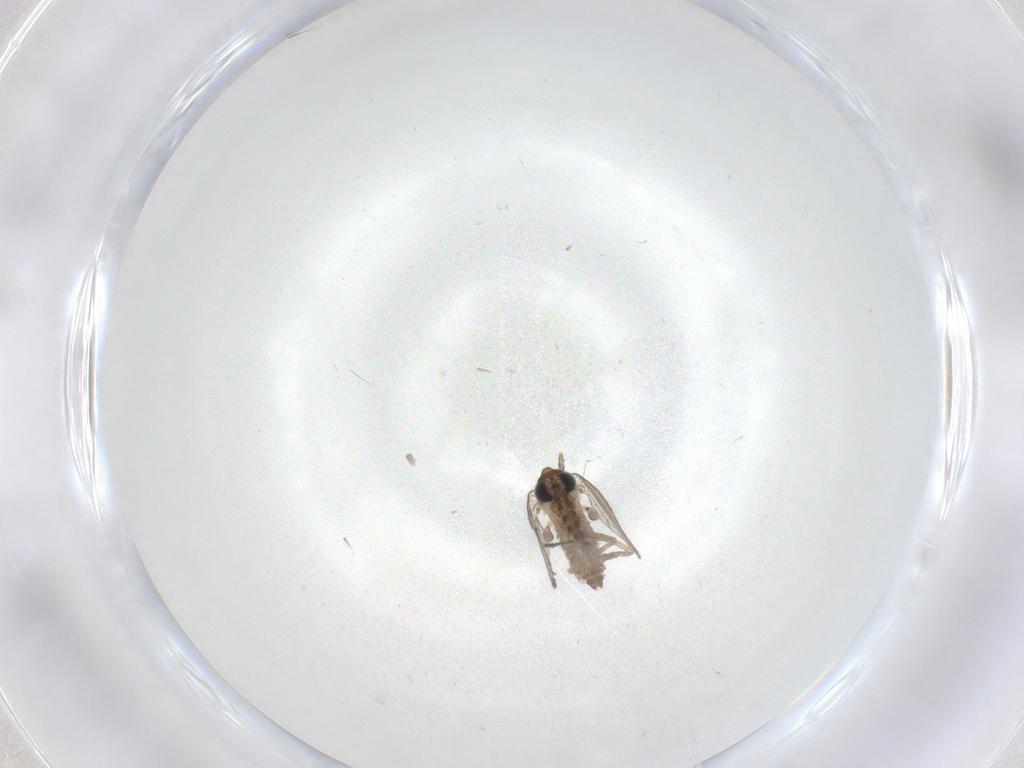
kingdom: Animalia
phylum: Arthropoda
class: Insecta
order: Diptera
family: Psychodidae
